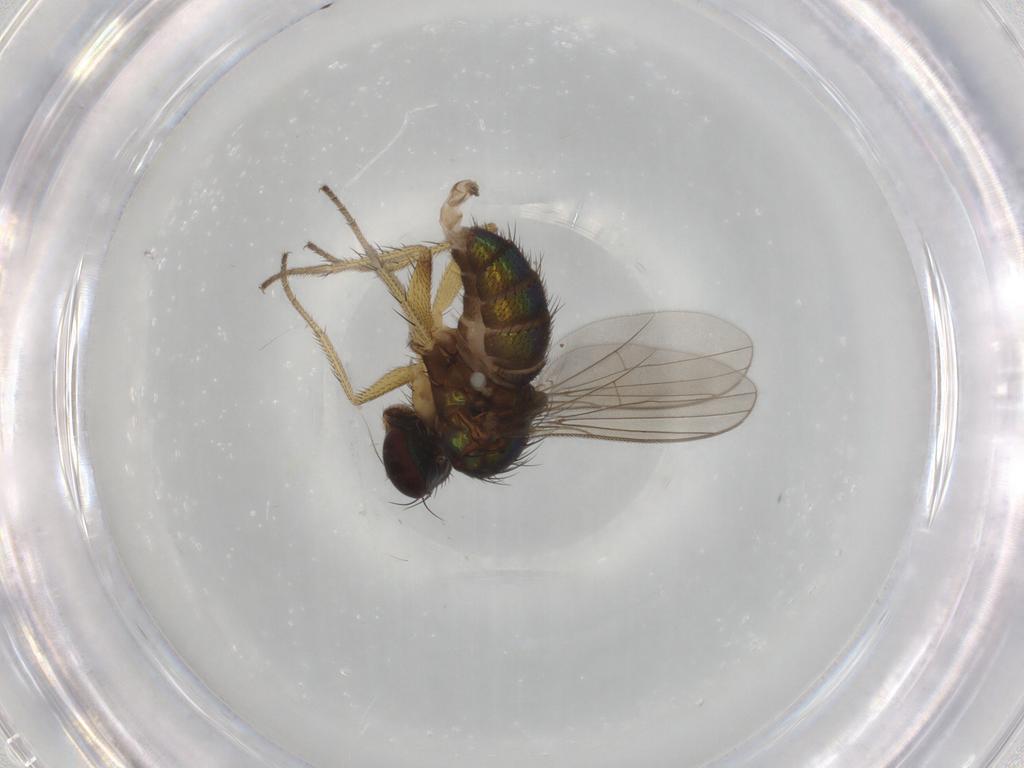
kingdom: Animalia
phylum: Arthropoda
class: Insecta
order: Diptera
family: Dolichopodidae
